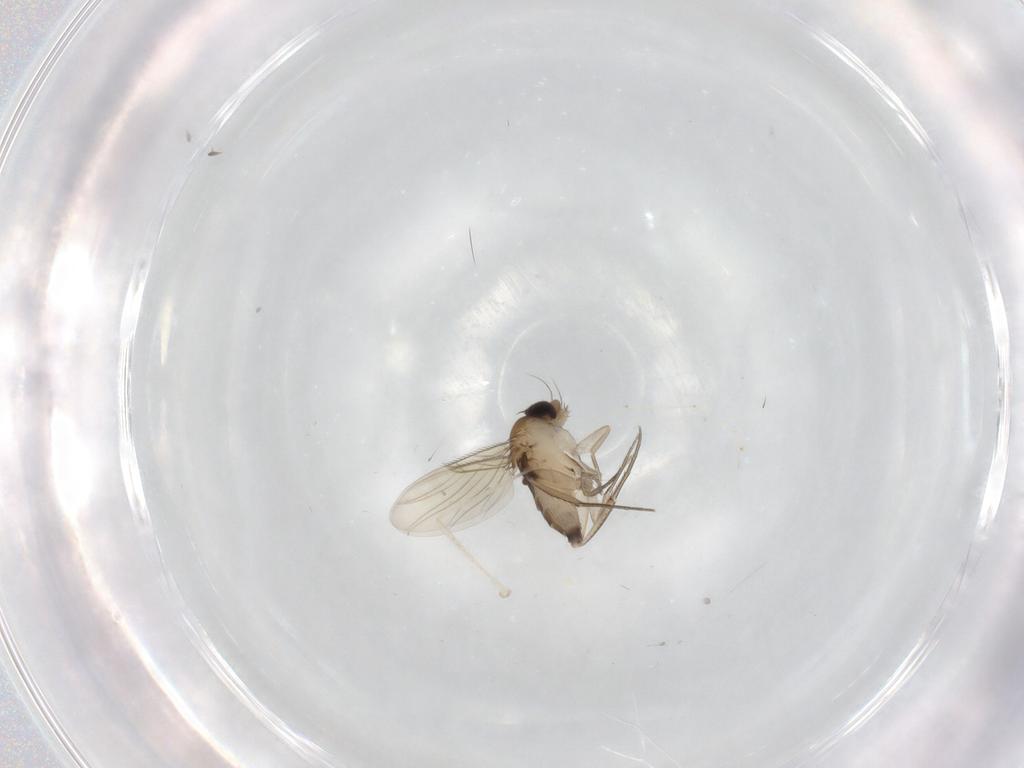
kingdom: Animalia
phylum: Arthropoda
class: Insecta
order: Diptera
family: Phoridae
